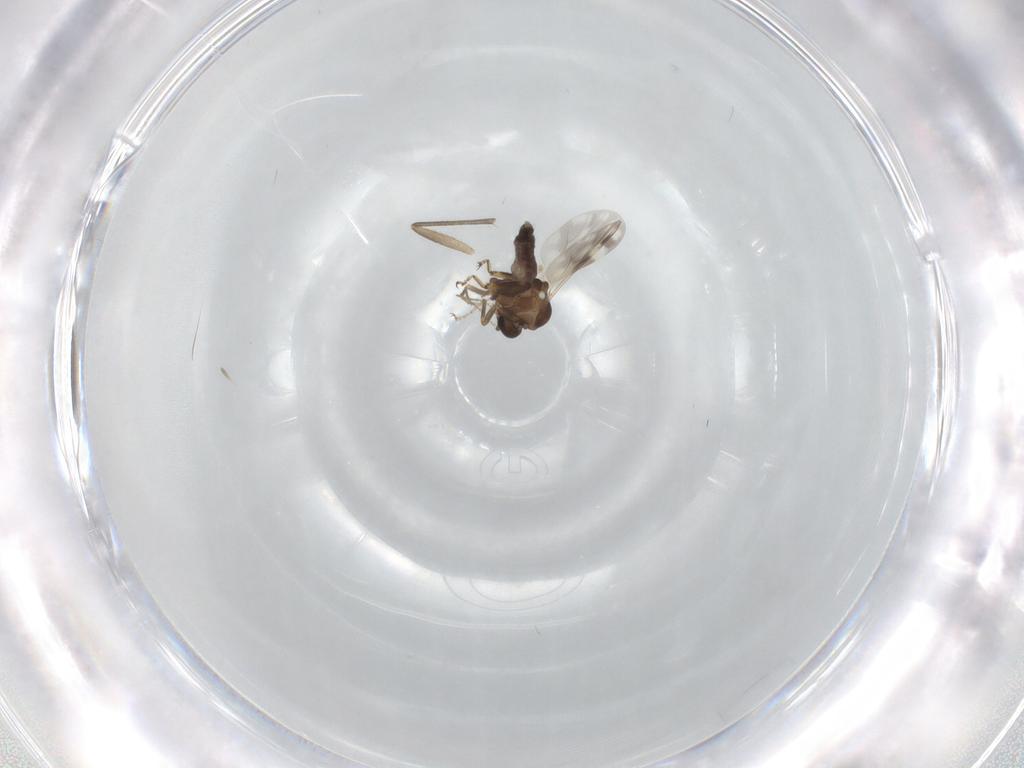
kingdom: Animalia
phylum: Arthropoda
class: Insecta
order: Diptera
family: Ceratopogonidae
